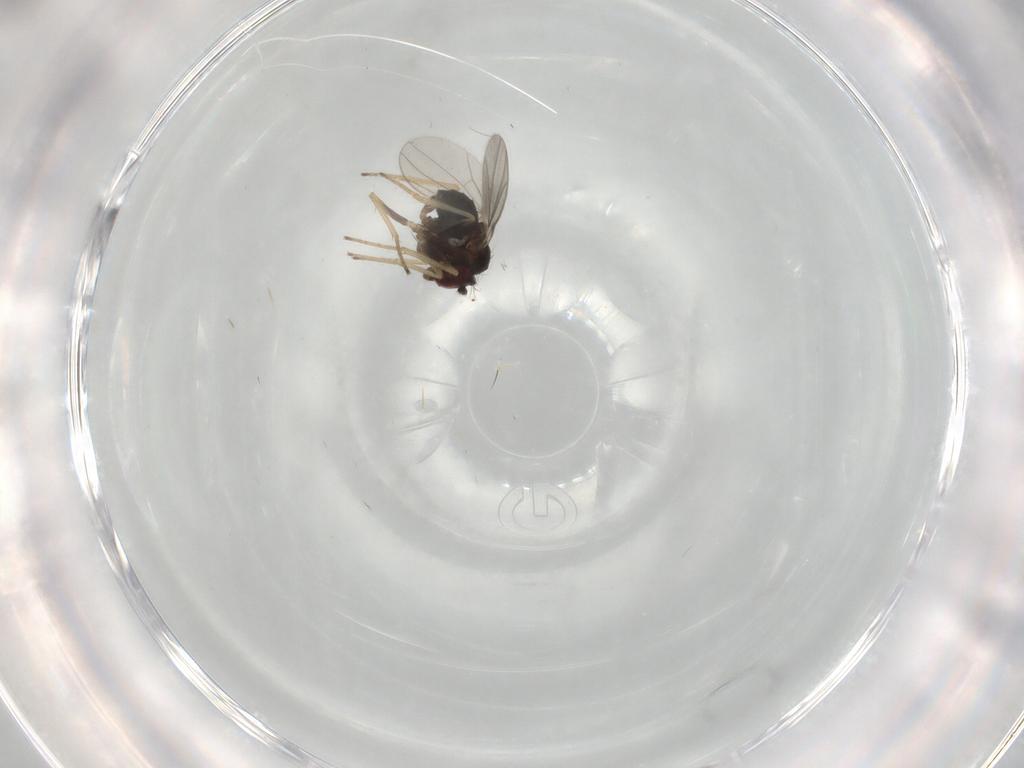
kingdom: Animalia
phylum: Arthropoda
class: Insecta
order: Diptera
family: Dolichopodidae
